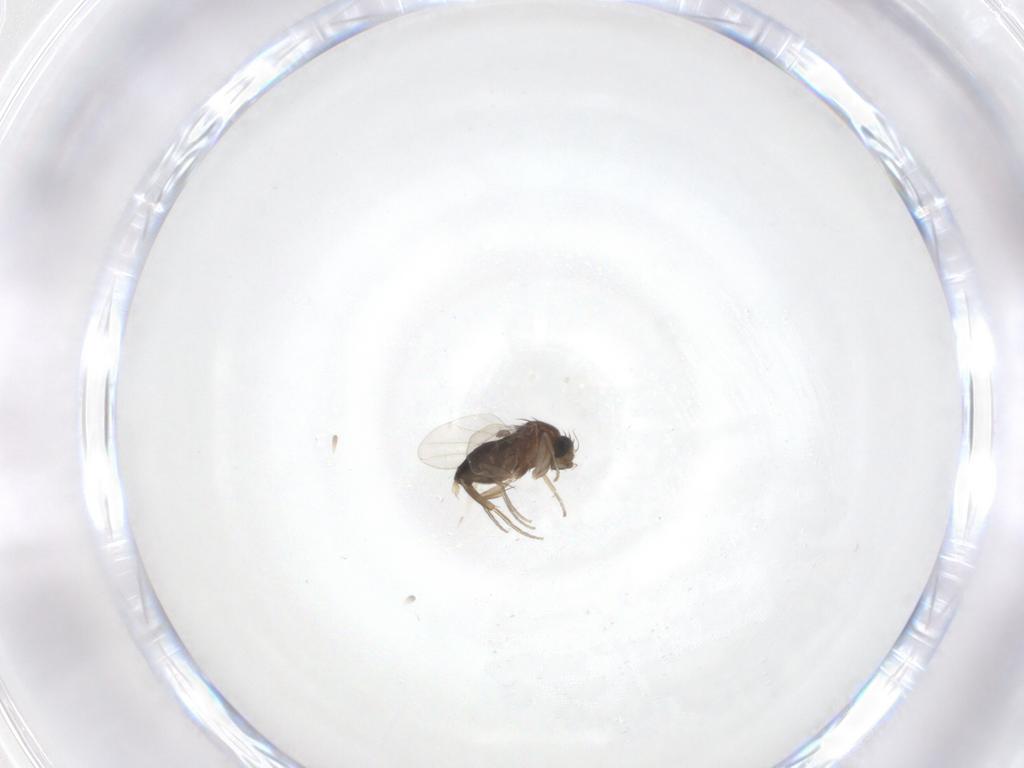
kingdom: Animalia
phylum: Arthropoda
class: Insecta
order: Diptera
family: Phoridae
